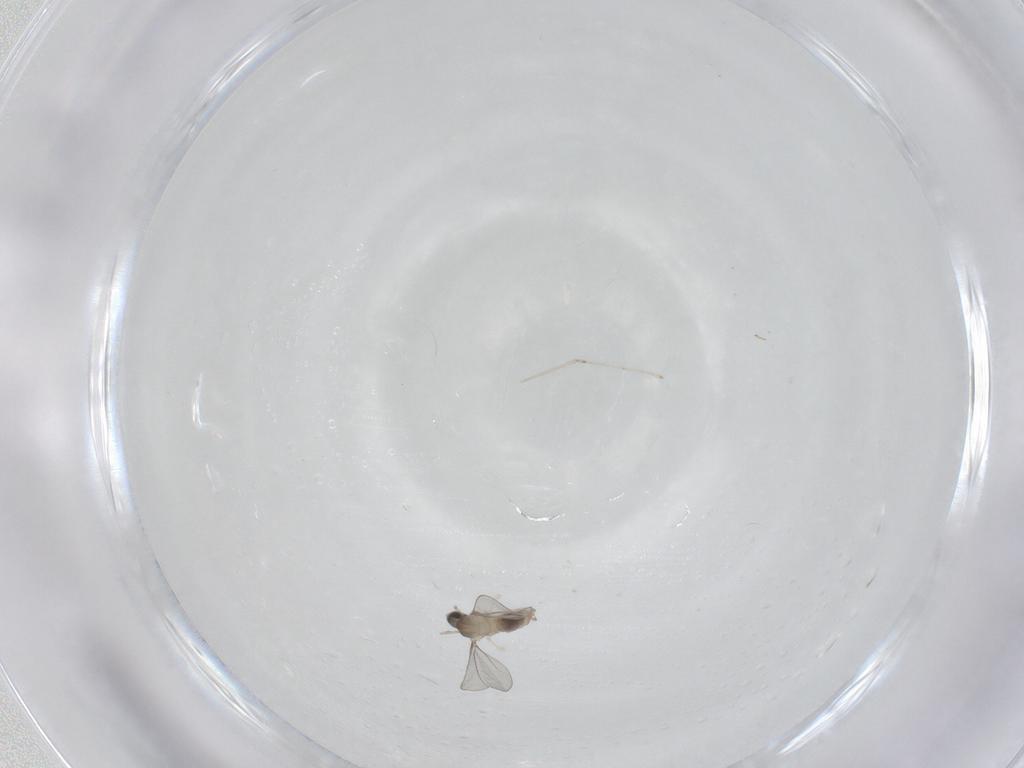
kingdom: Animalia
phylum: Arthropoda
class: Insecta
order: Diptera
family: Cecidomyiidae
